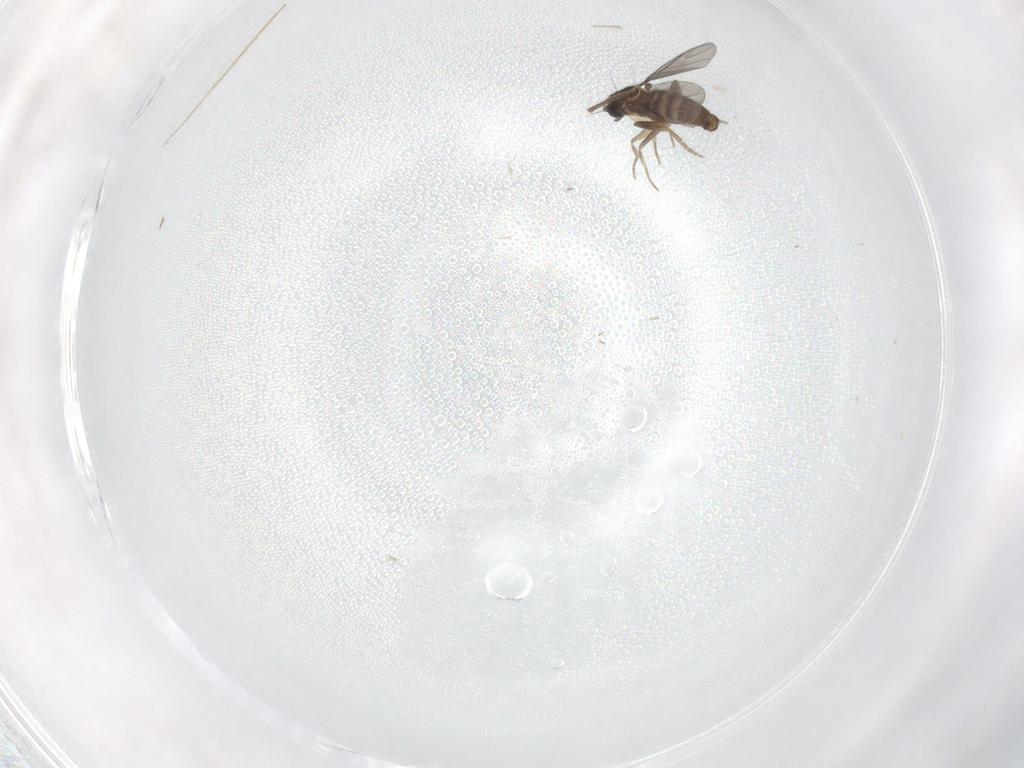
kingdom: Animalia
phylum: Arthropoda
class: Insecta
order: Diptera
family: Chironomidae
